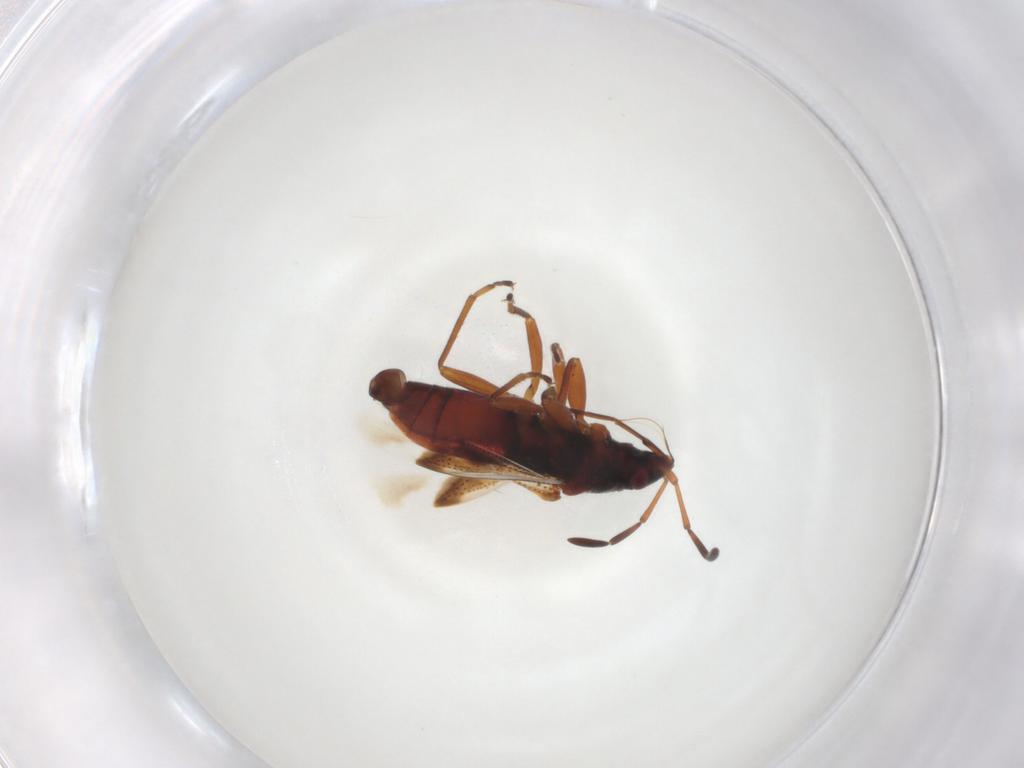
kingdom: Animalia
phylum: Arthropoda
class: Insecta
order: Hemiptera
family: Rhyparochromidae
